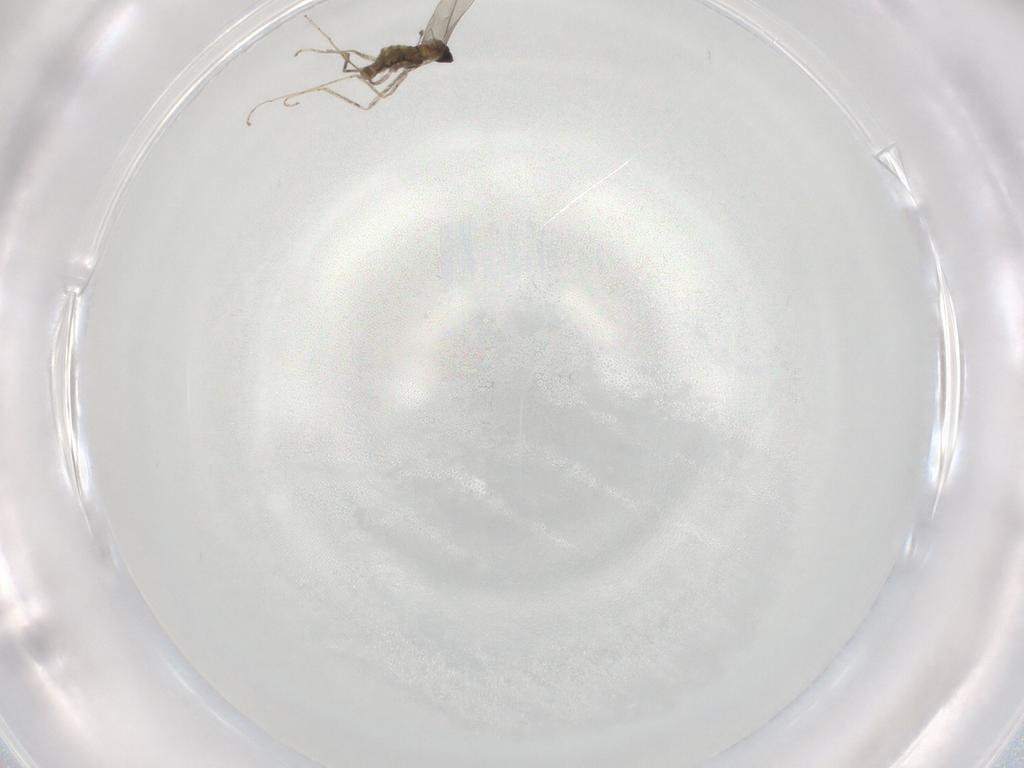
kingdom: Animalia
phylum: Arthropoda
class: Insecta
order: Diptera
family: Cecidomyiidae
